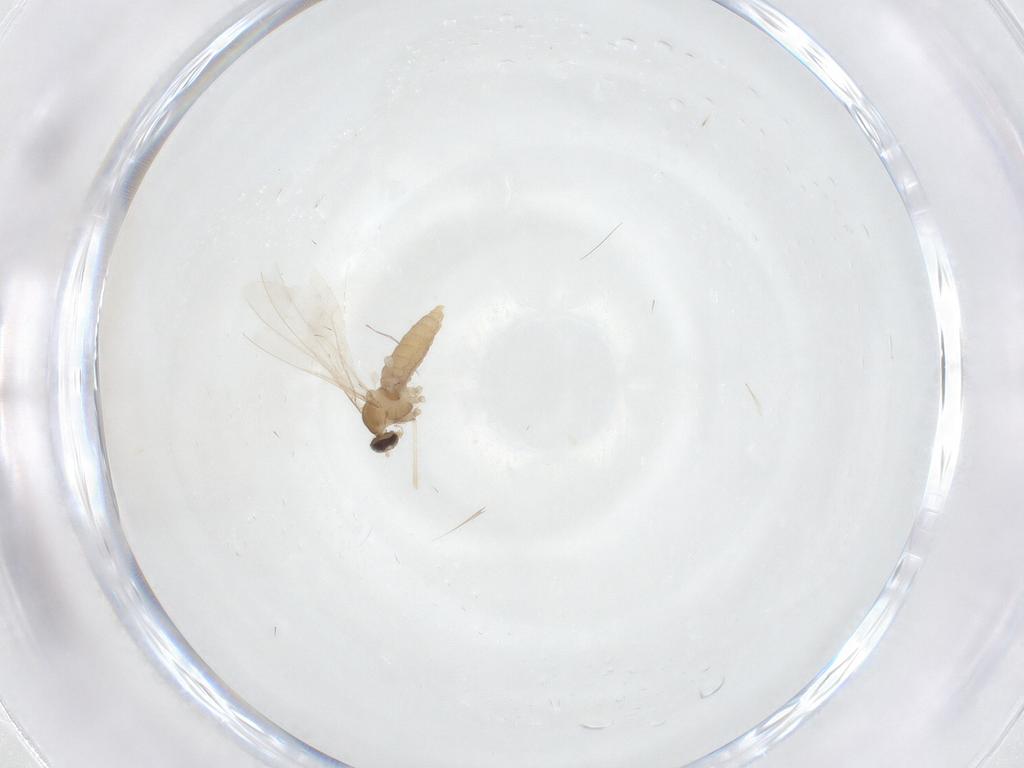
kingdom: Animalia
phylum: Arthropoda
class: Insecta
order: Diptera
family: Cecidomyiidae
